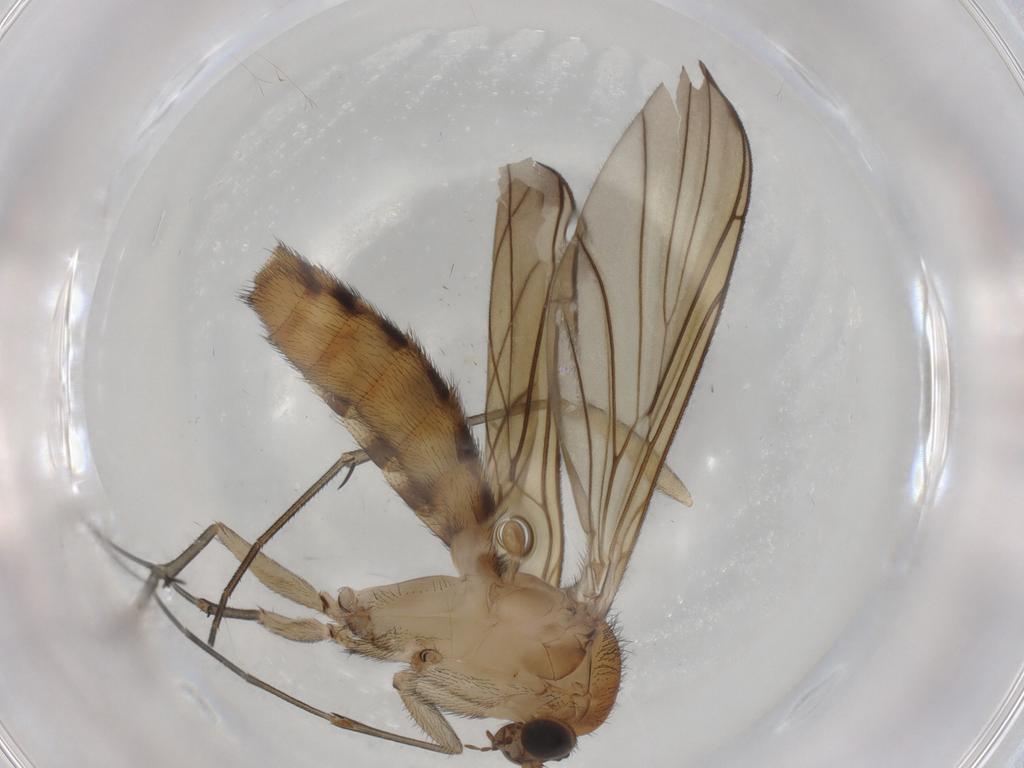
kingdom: Animalia
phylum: Arthropoda
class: Insecta
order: Diptera
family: Keroplatidae
